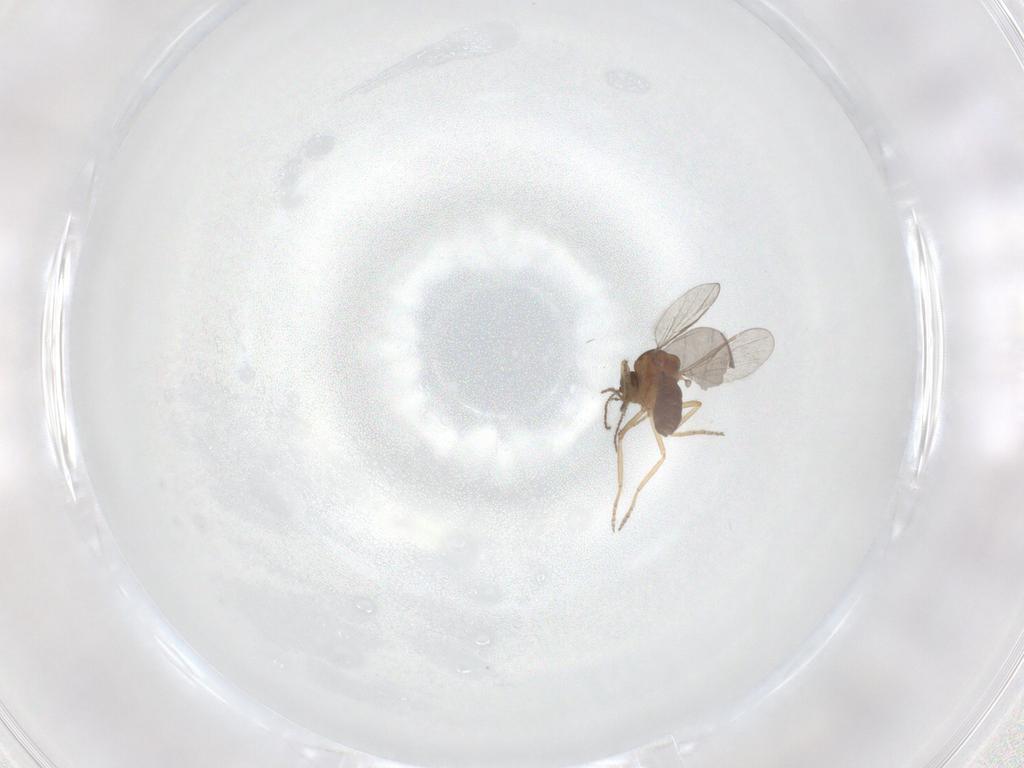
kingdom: Animalia
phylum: Arthropoda
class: Insecta
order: Diptera
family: Ceratopogonidae
